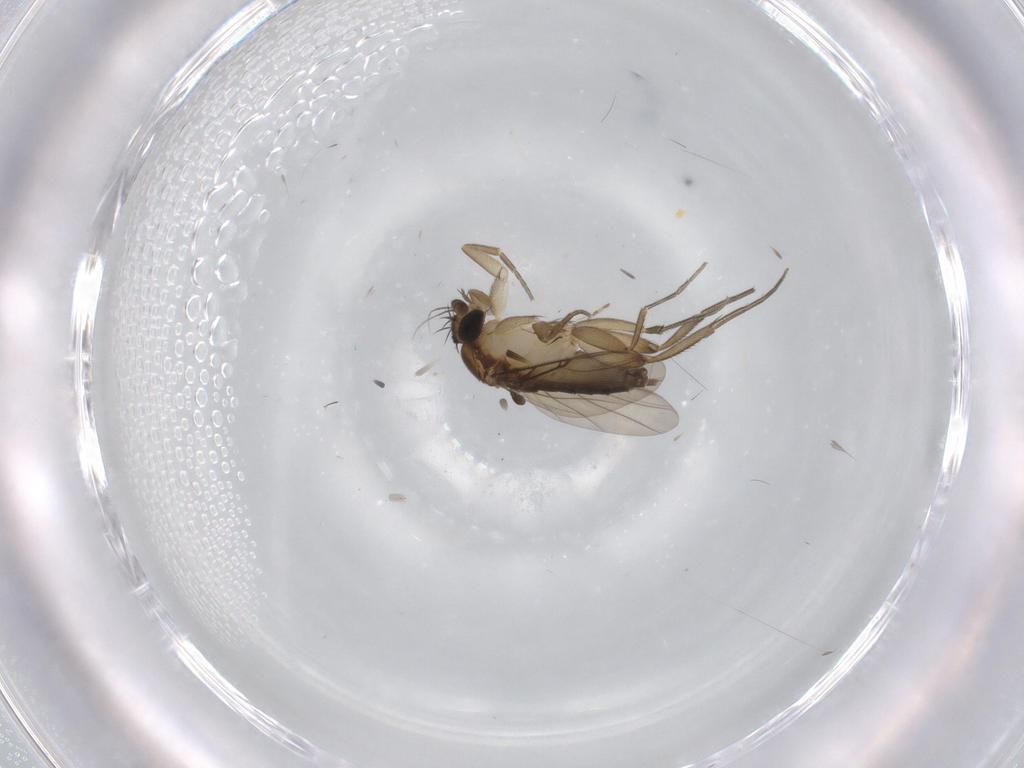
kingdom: Animalia
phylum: Arthropoda
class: Insecta
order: Diptera
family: Phoridae
